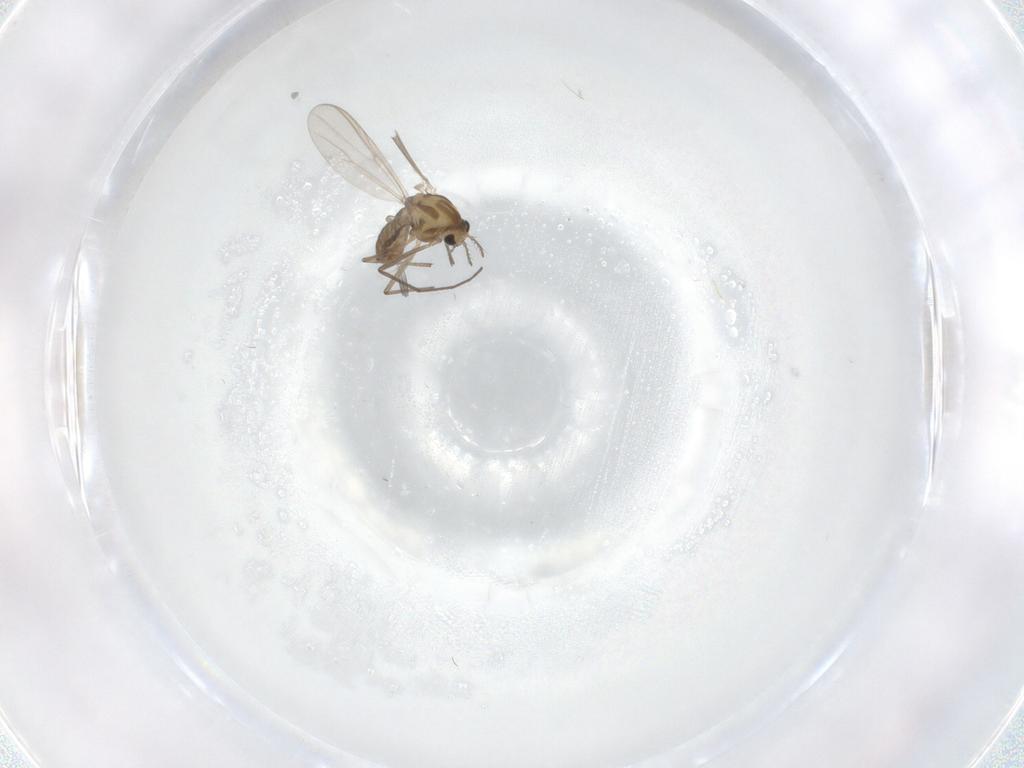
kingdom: Animalia
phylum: Arthropoda
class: Insecta
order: Diptera
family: Chironomidae
